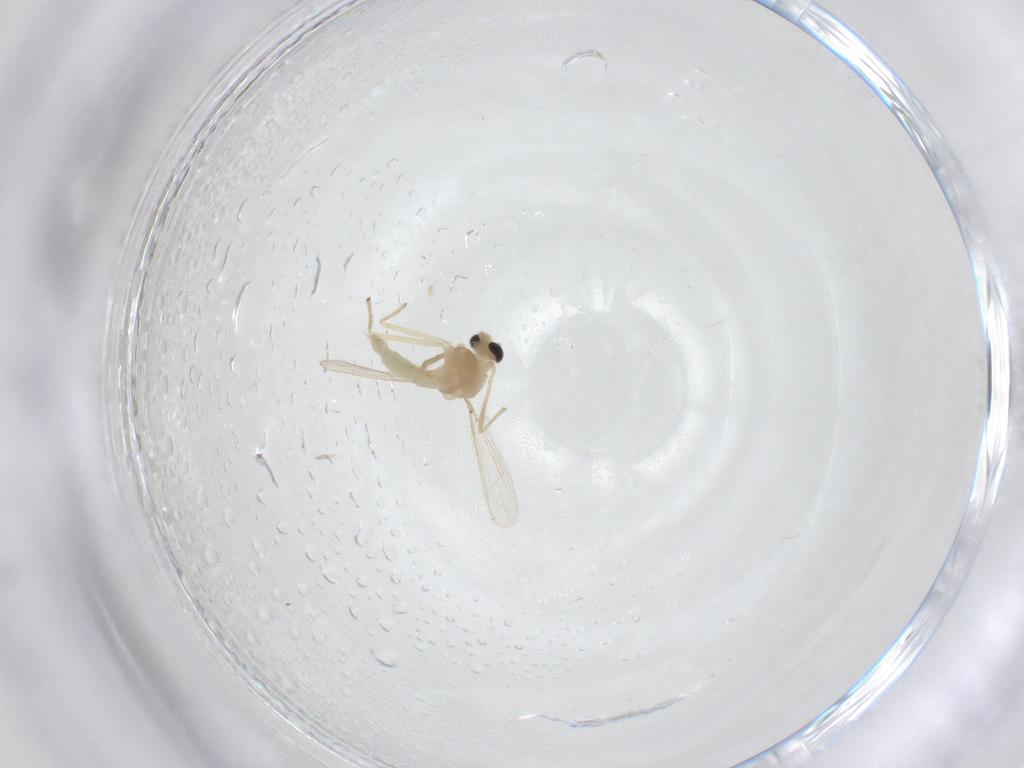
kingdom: Animalia
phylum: Arthropoda
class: Insecta
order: Diptera
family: Chironomidae
